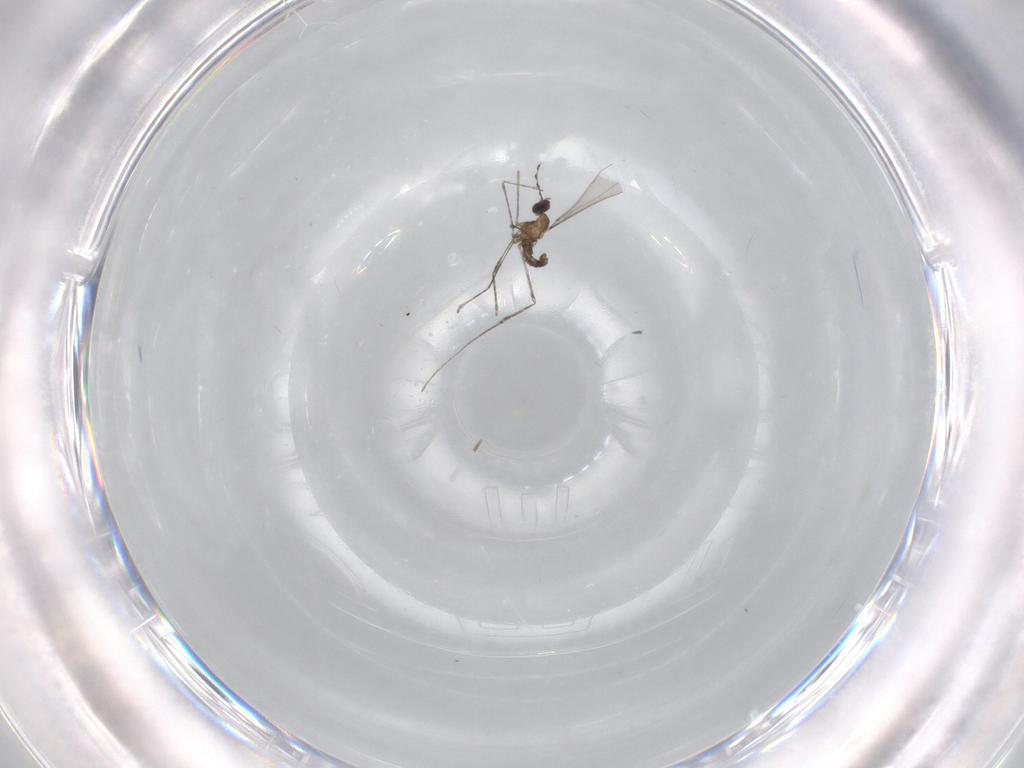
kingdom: Animalia
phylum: Arthropoda
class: Insecta
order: Diptera
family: Cecidomyiidae
